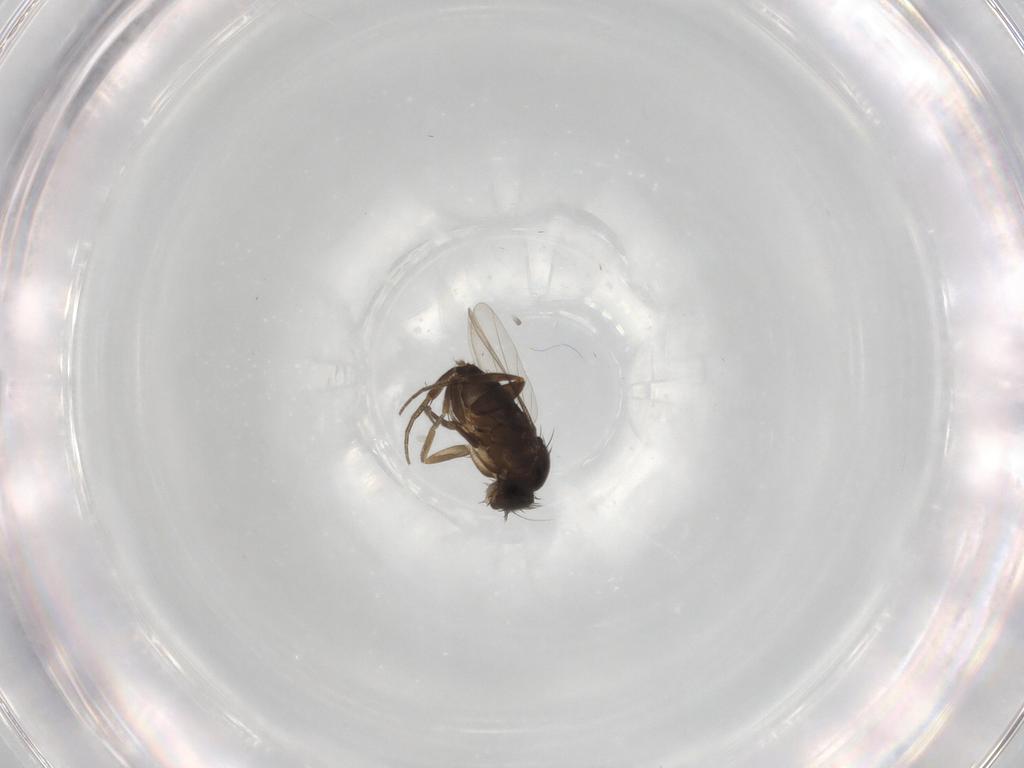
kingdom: Animalia
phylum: Arthropoda
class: Insecta
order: Diptera
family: Phoridae
